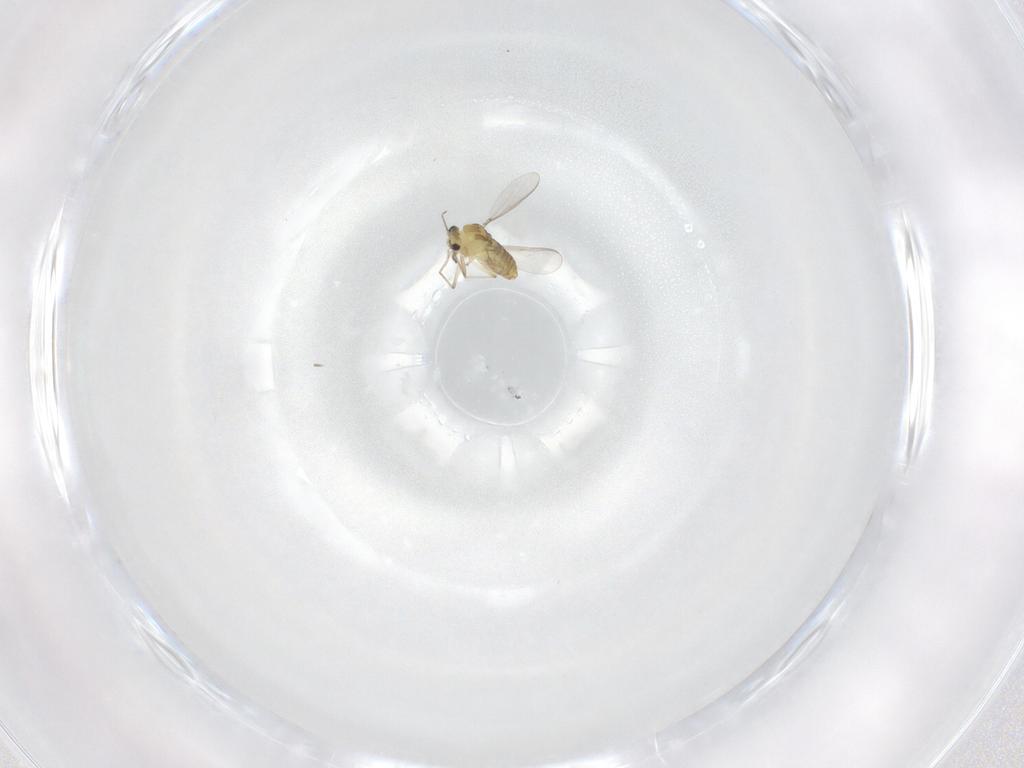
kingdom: Animalia
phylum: Arthropoda
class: Insecta
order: Diptera
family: Chironomidae
